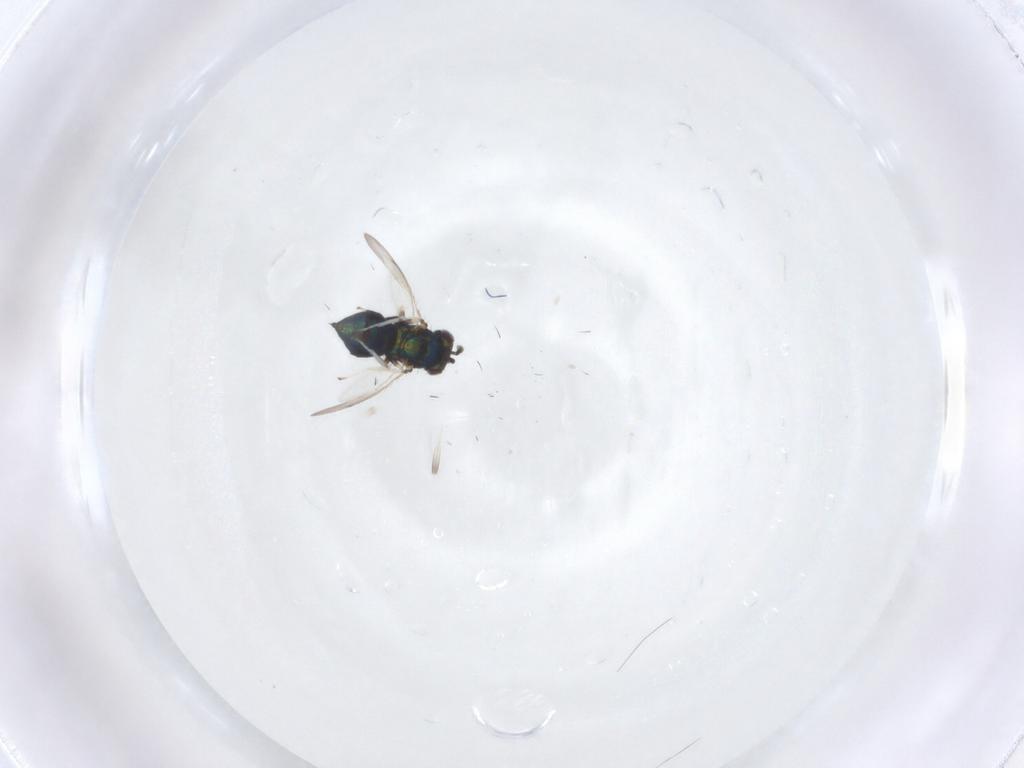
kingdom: Animalia
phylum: Arthropoda
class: Insecta
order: Hymenoptera
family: Eulophidae
